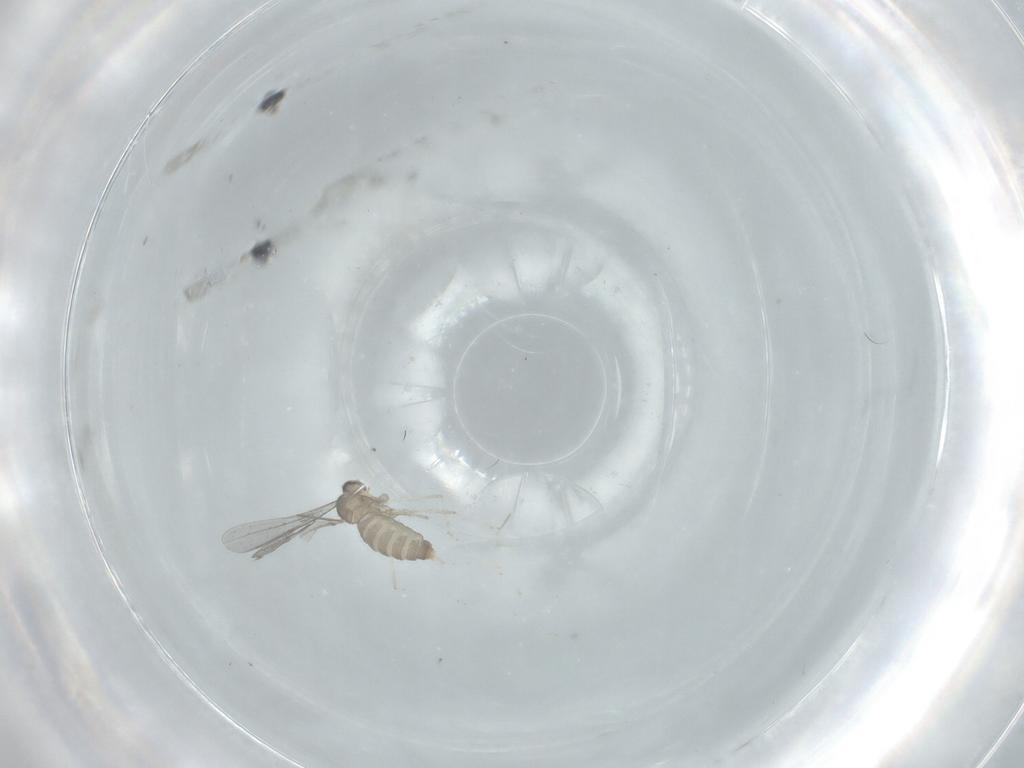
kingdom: Animalia
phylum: Arthropoda
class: Insecta
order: Diptera
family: Cecidomyiidae
